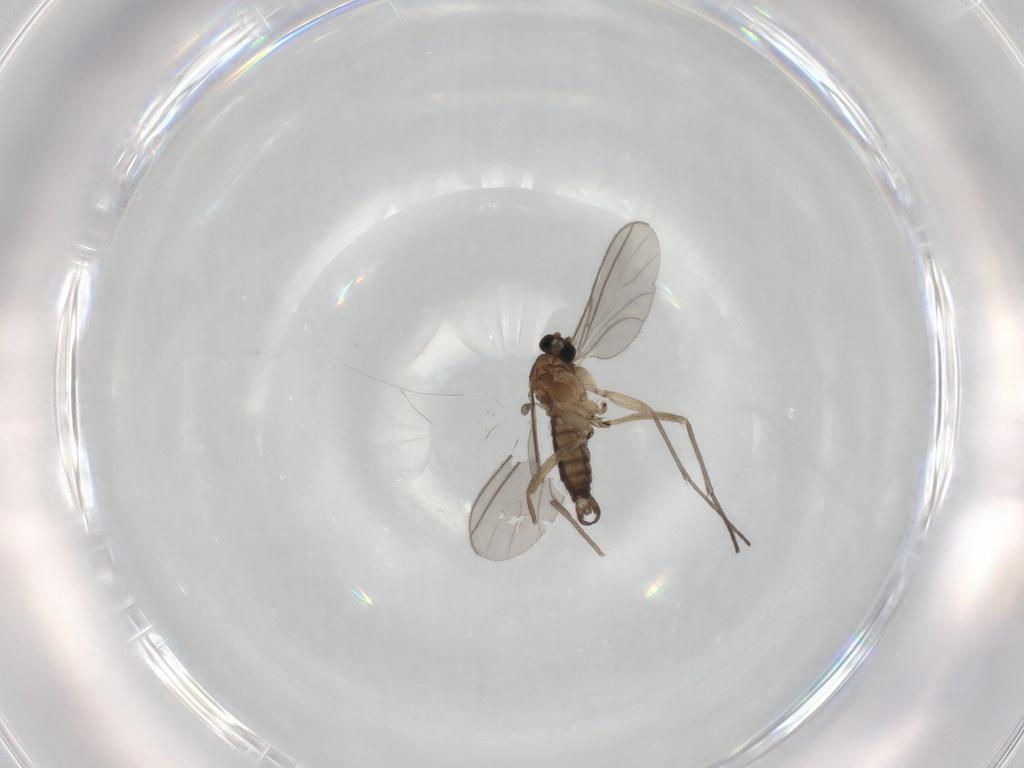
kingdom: Animalia
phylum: Arthropoda
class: Insecta
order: Diptera
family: Sciaridae
